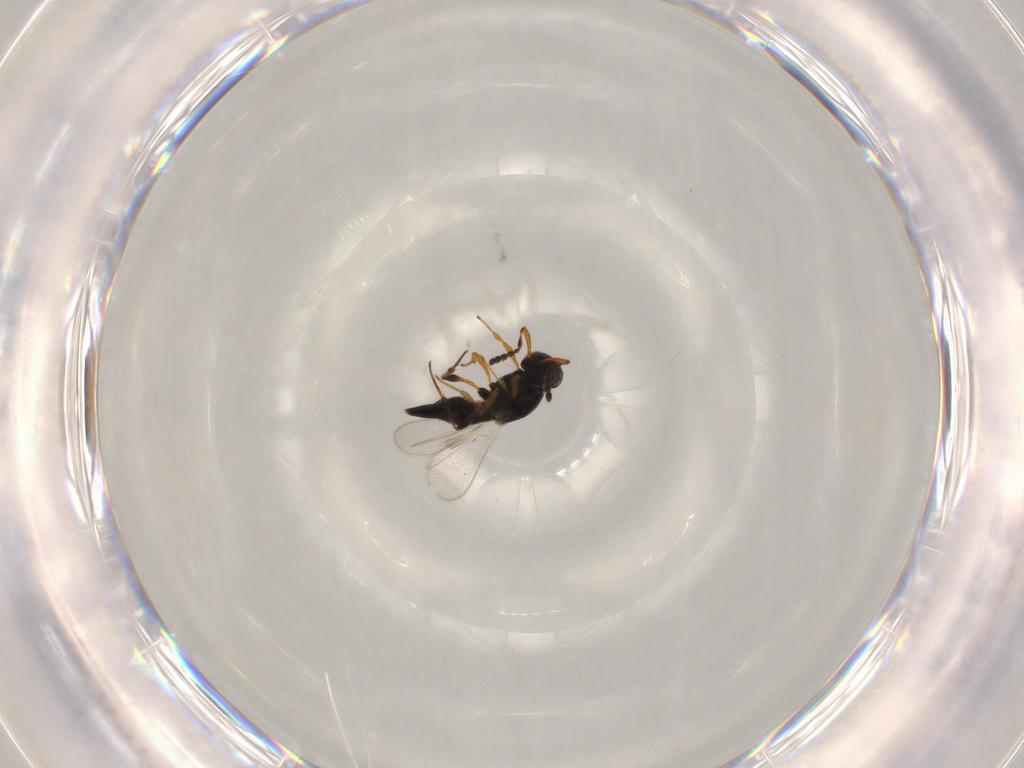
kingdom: Animalia
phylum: Arthropoda
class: Insecta
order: Hymenoptera
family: Platygastridae
